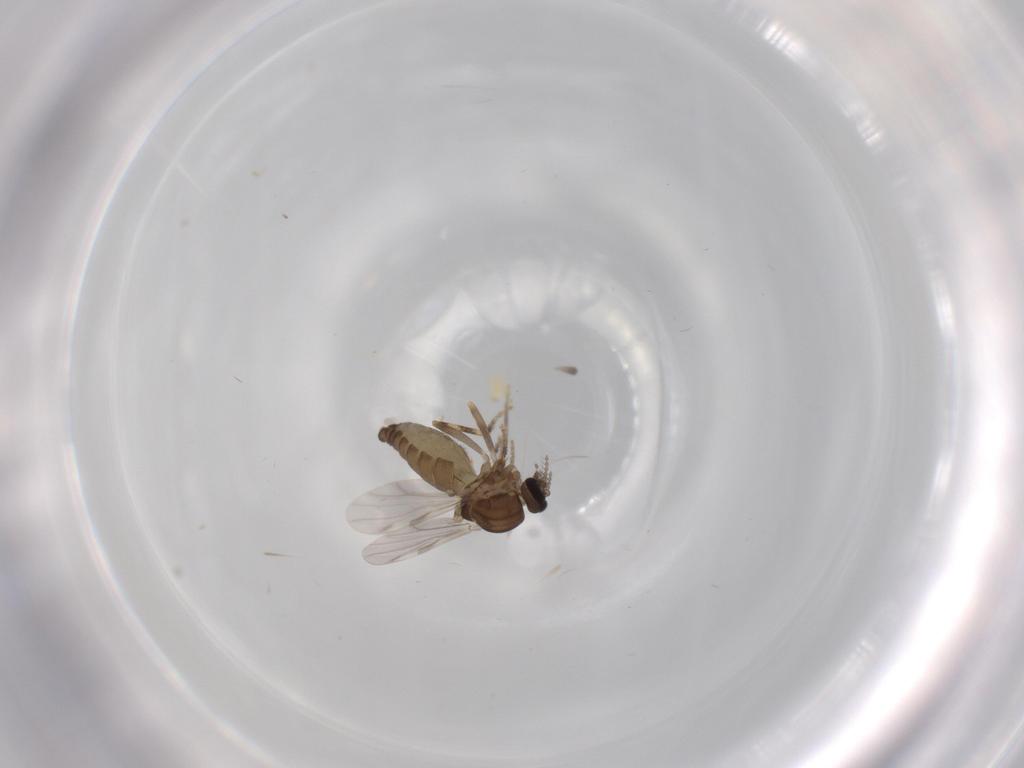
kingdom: Animalia
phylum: Arthropoda
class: Insecta
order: Diptera
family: Ceratopogonidae
